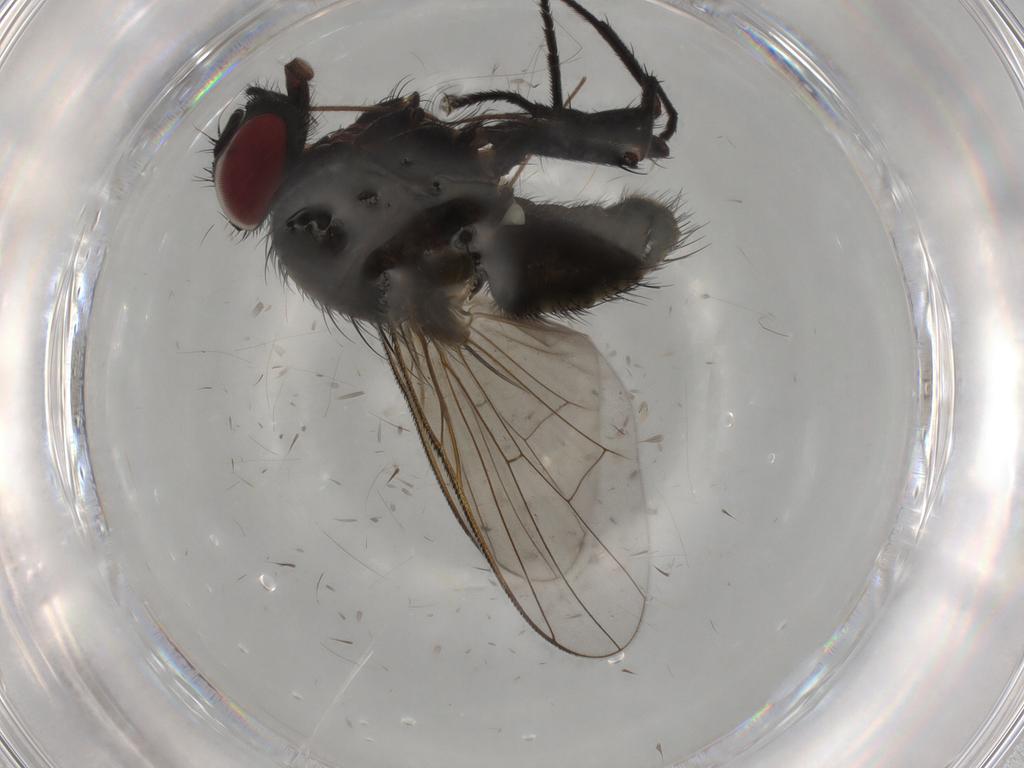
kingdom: Animalia
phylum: Arthropoda
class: Insecta
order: Diptera
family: Muscidae
